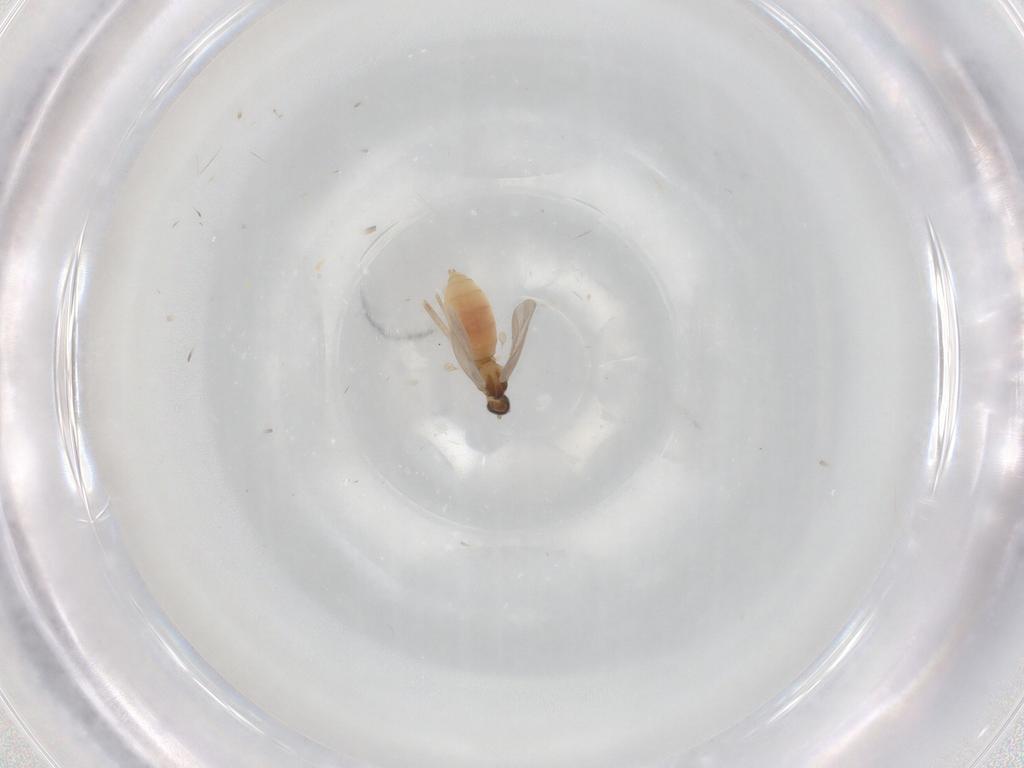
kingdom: Animalia
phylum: Arthropoda
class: Insecta
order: Diptera
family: Cecidomyiidae
